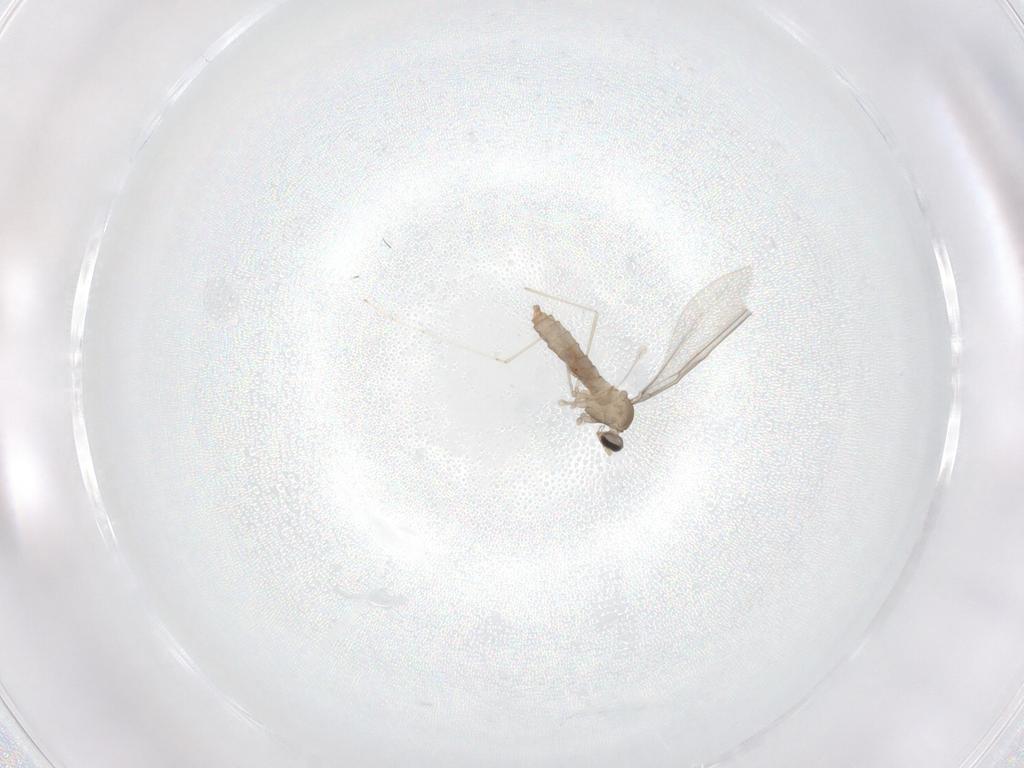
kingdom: Animalia
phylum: Arthropoda
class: Insecta
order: Diptera
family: Cecidomyiidae
